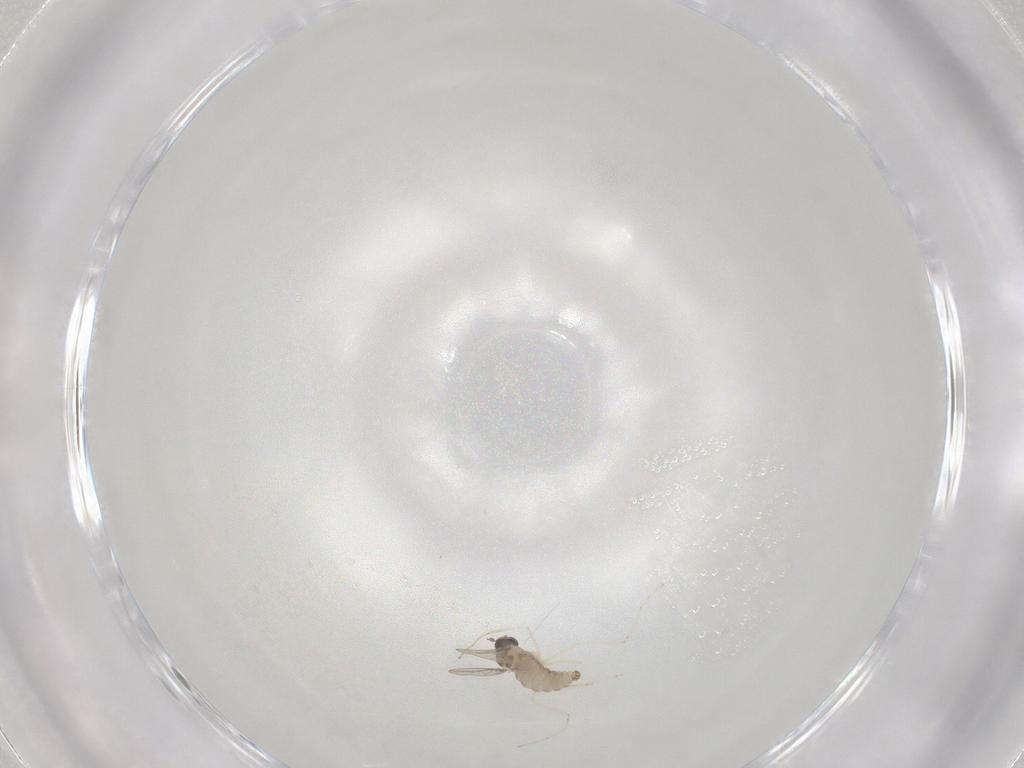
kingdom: Animalia
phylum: Arthropoda
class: Insecta
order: Diptera
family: Cecidomyiidae
